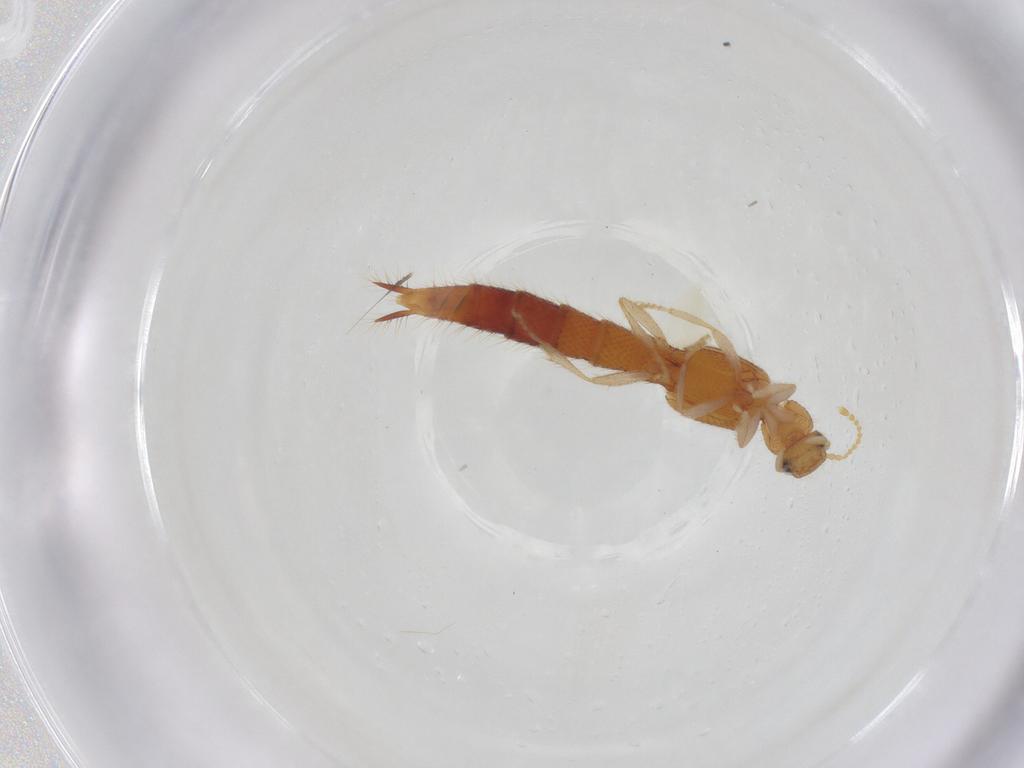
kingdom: Animalia
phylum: Arthropoda
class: Insecta
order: Coleoptera
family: Staphylinidae
